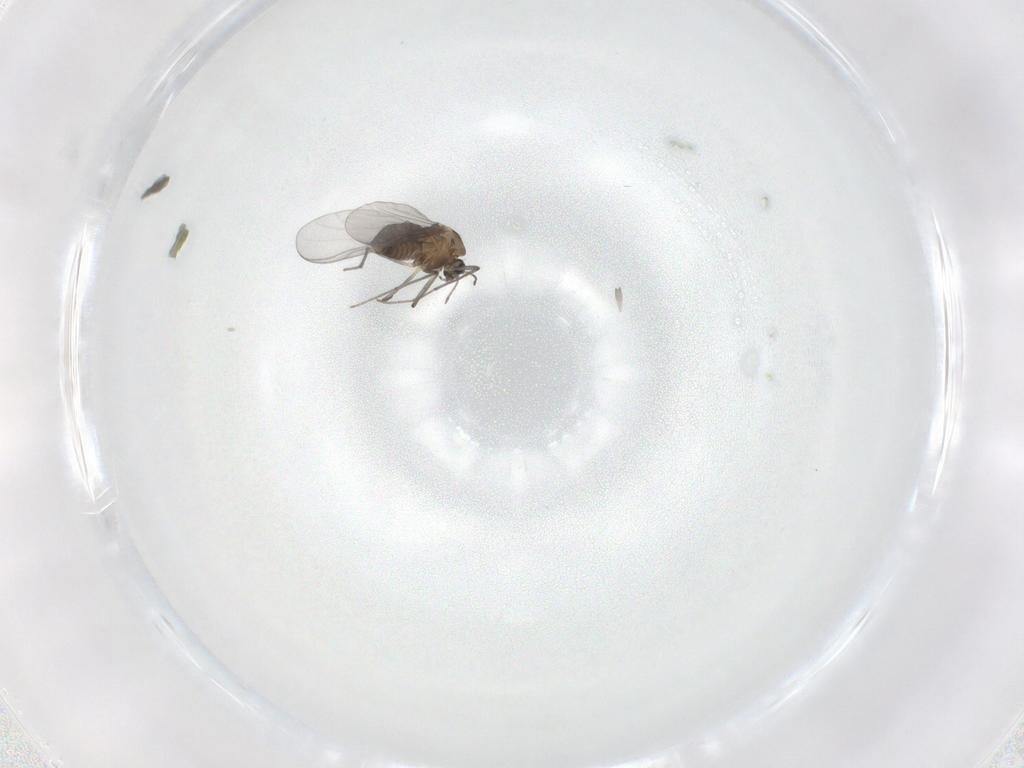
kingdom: Animalia
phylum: Arthropoda
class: Insecta
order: Diptera
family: Chironomidae
